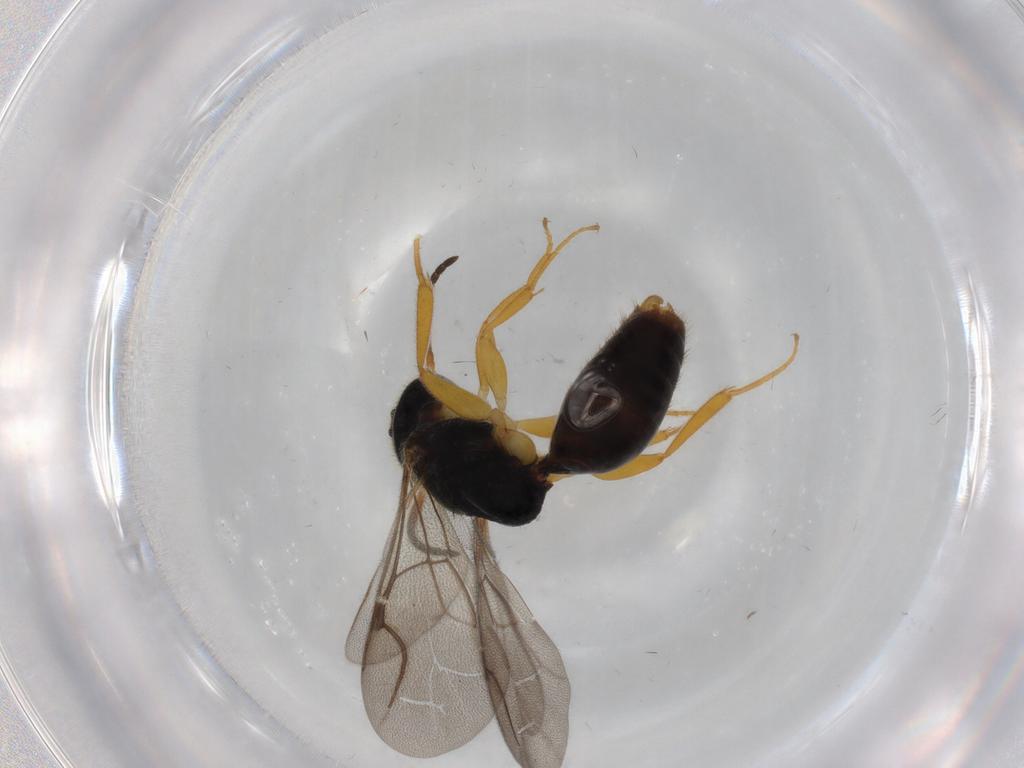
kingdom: Animalia
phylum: Arthropoda
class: Insecta
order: Hymenoptera
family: Bethylidae
